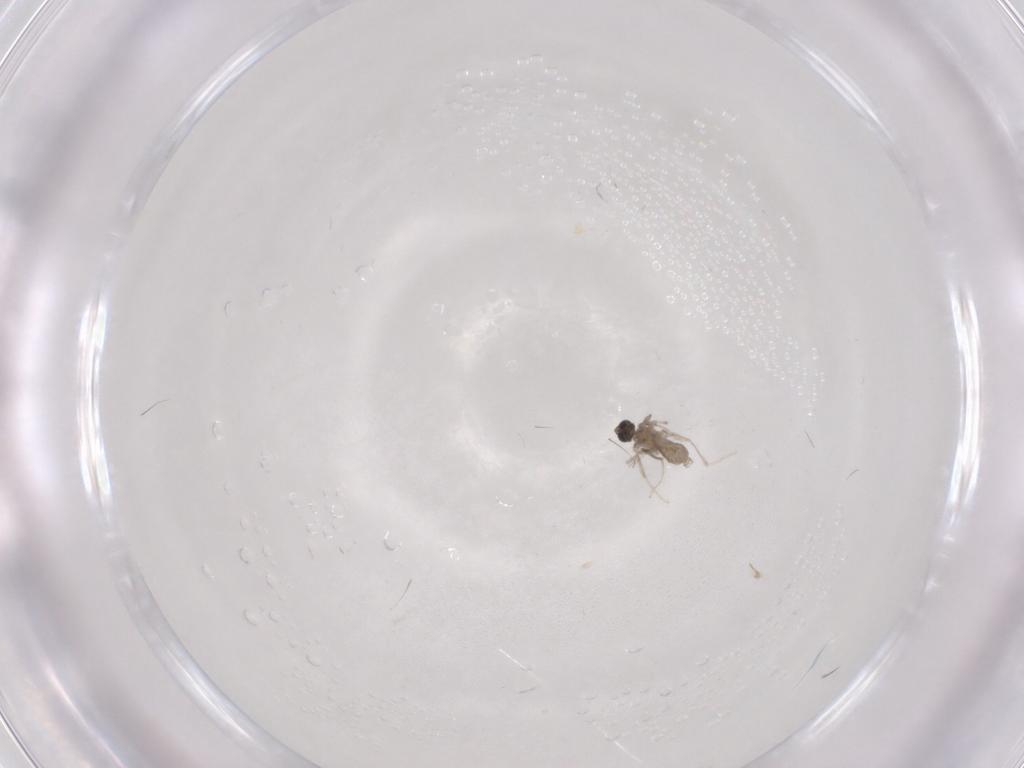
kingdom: Animalia
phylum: Arthropoda
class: Insecta
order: Diptera
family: Cecidomyiidae
